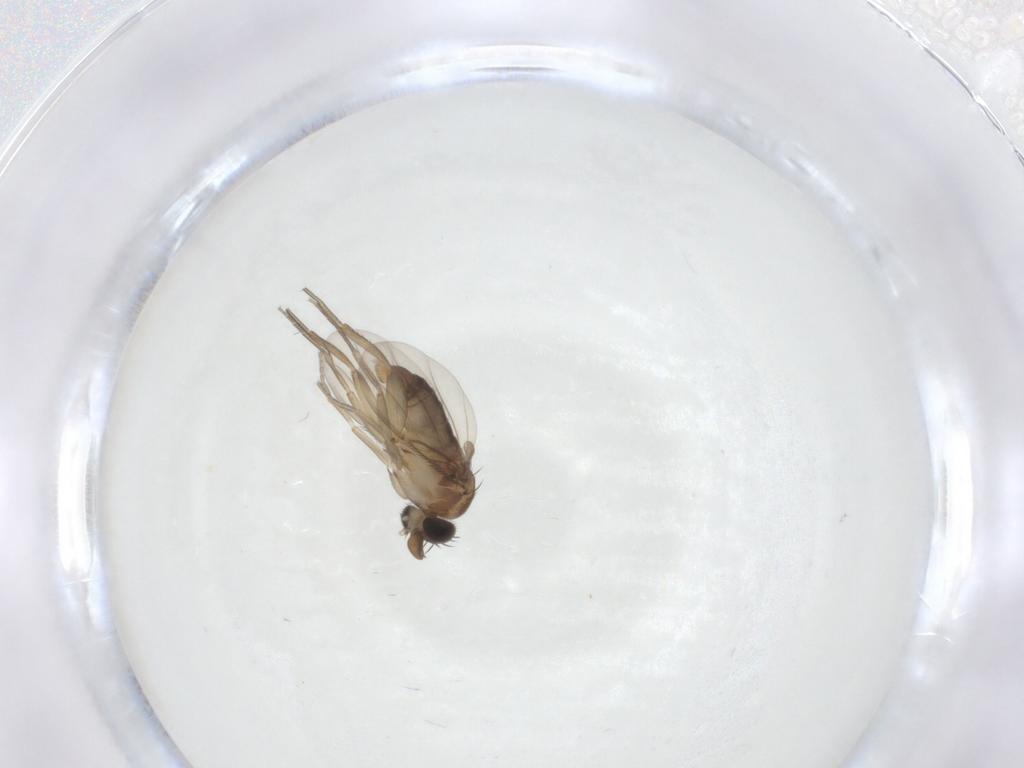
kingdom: Animalia
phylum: Arthropoda
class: Insecta
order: Diptera
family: Phoridae
